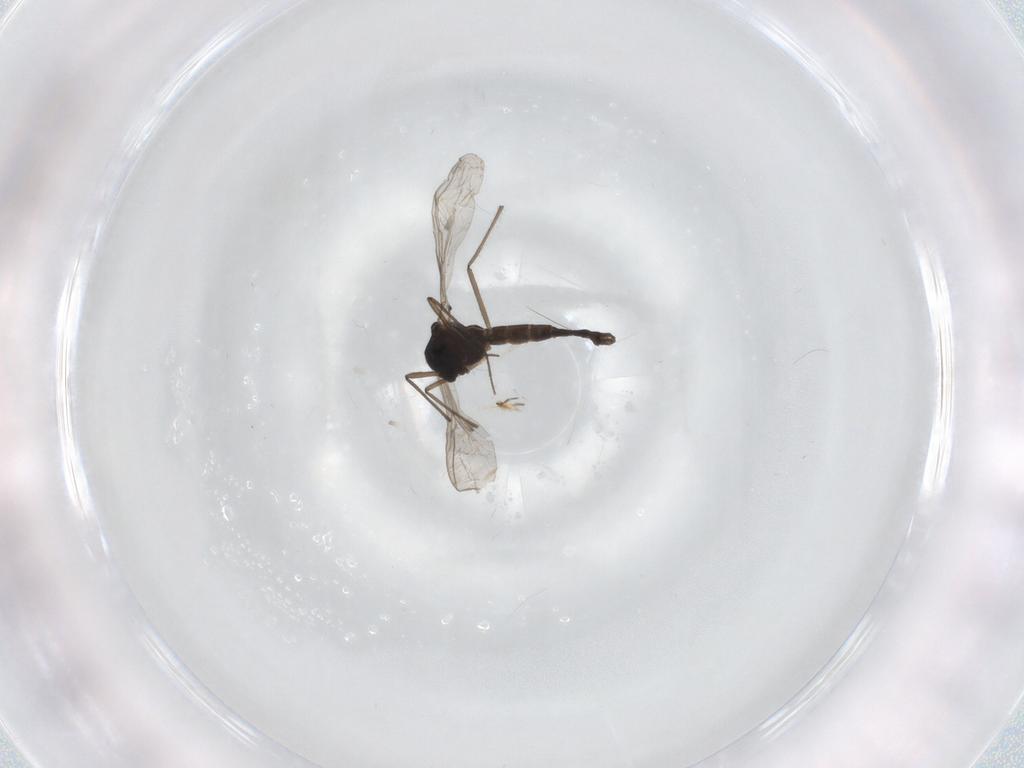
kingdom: Animalia
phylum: Arthropoda
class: Insecta
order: Diptera
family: Chironomidae
